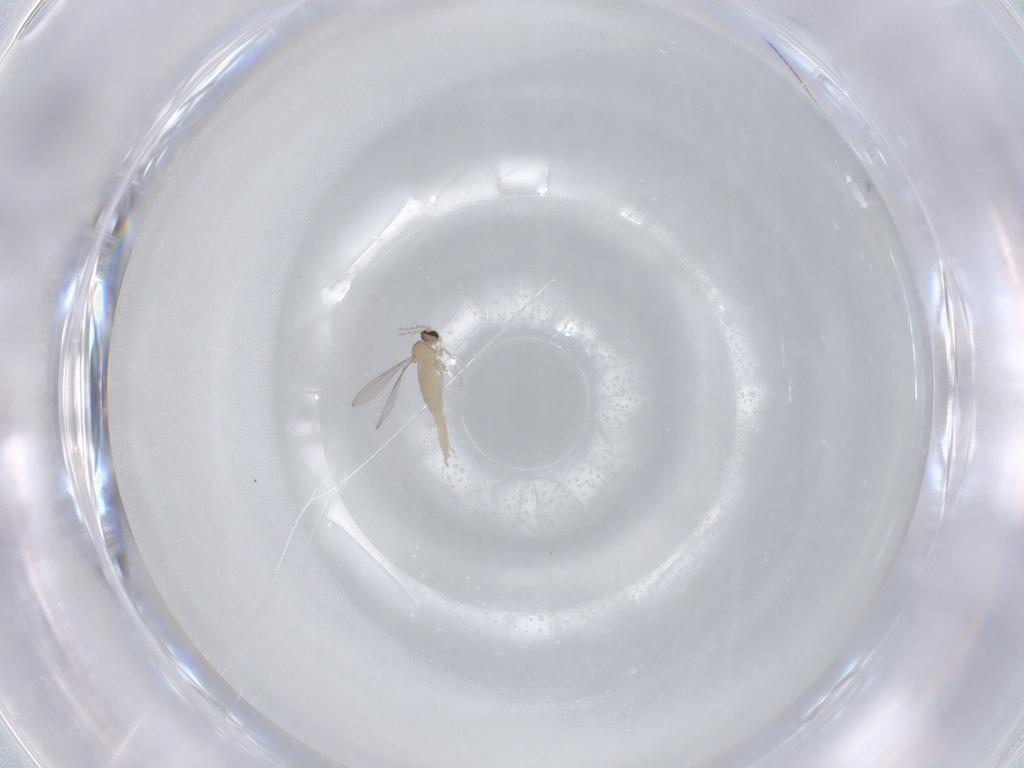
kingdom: Animalia
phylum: Arthropoda
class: Insecta
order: Diptera
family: Cecidomyiidae
